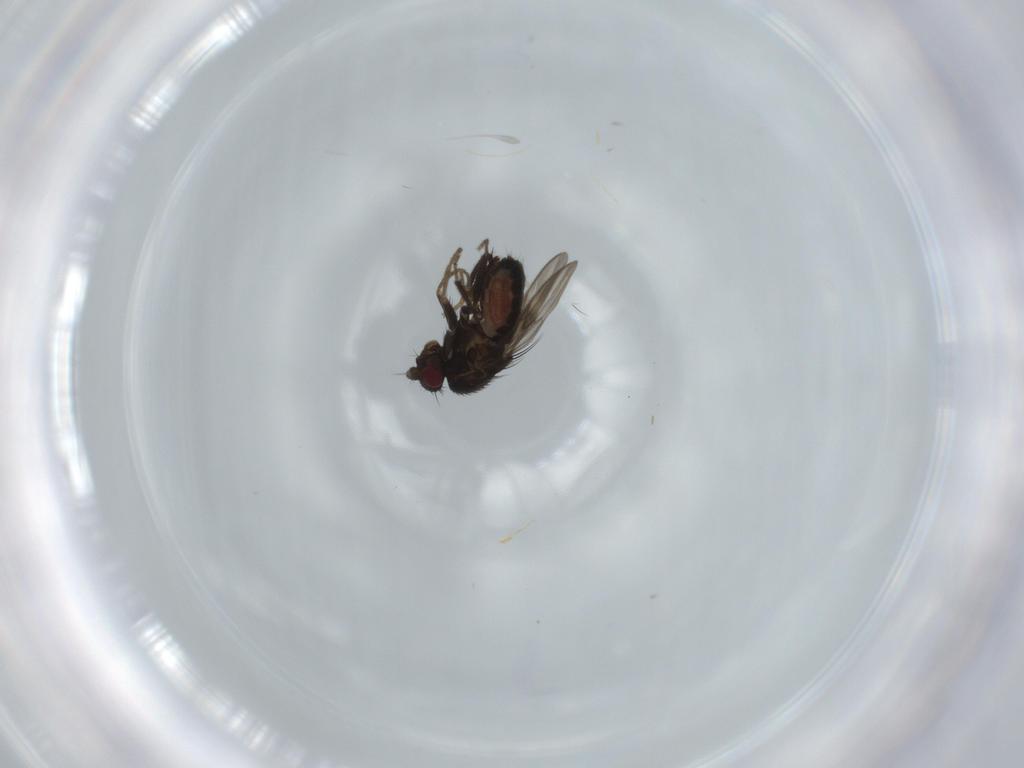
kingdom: Animalia
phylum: Arthropoda
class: Insecta
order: Diptera
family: Sphaeroceridae
